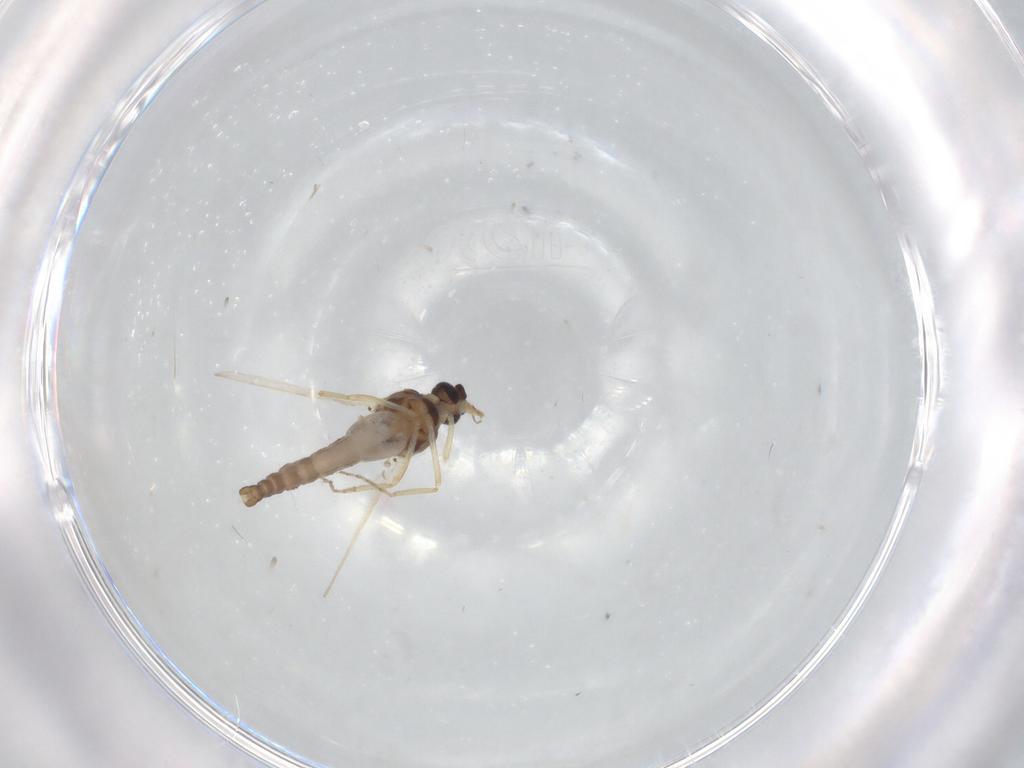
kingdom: Animalia
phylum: Arthropoda
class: Insecta
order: Diptera
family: Ceratopogonidae
